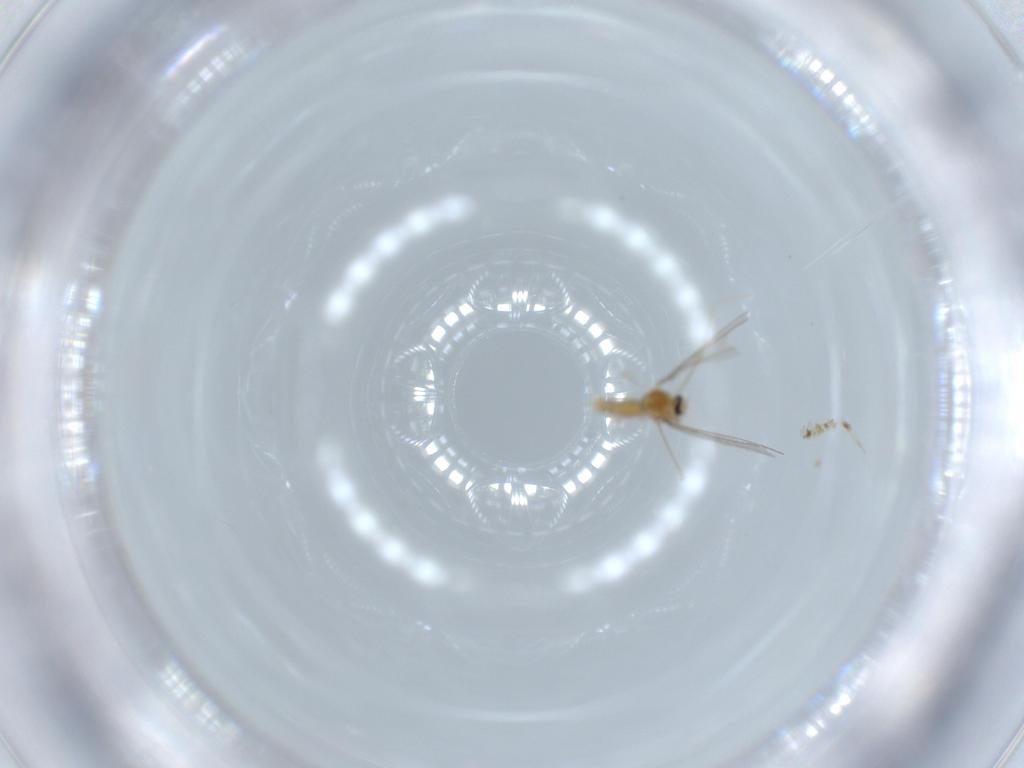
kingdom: Animalia
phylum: Arthropoda
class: Insecta
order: Diptera
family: Cecidomyiidae
